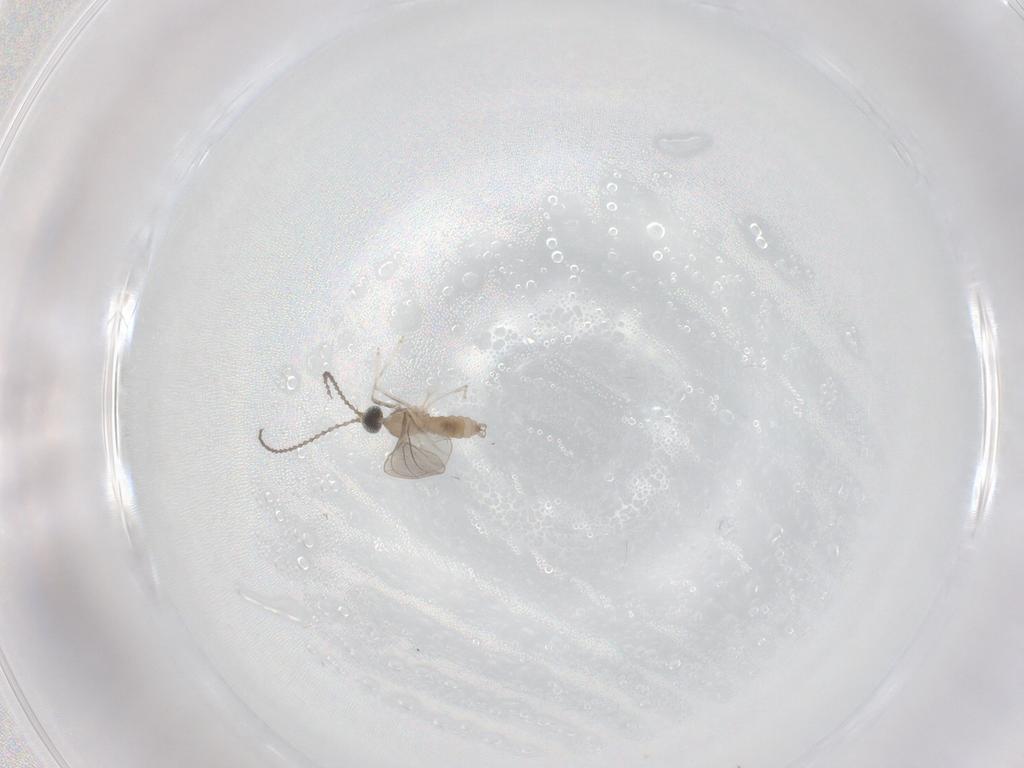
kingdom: Animalia
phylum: Arthropoda
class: Insecta
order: Diptera
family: Cecidomyiidae
